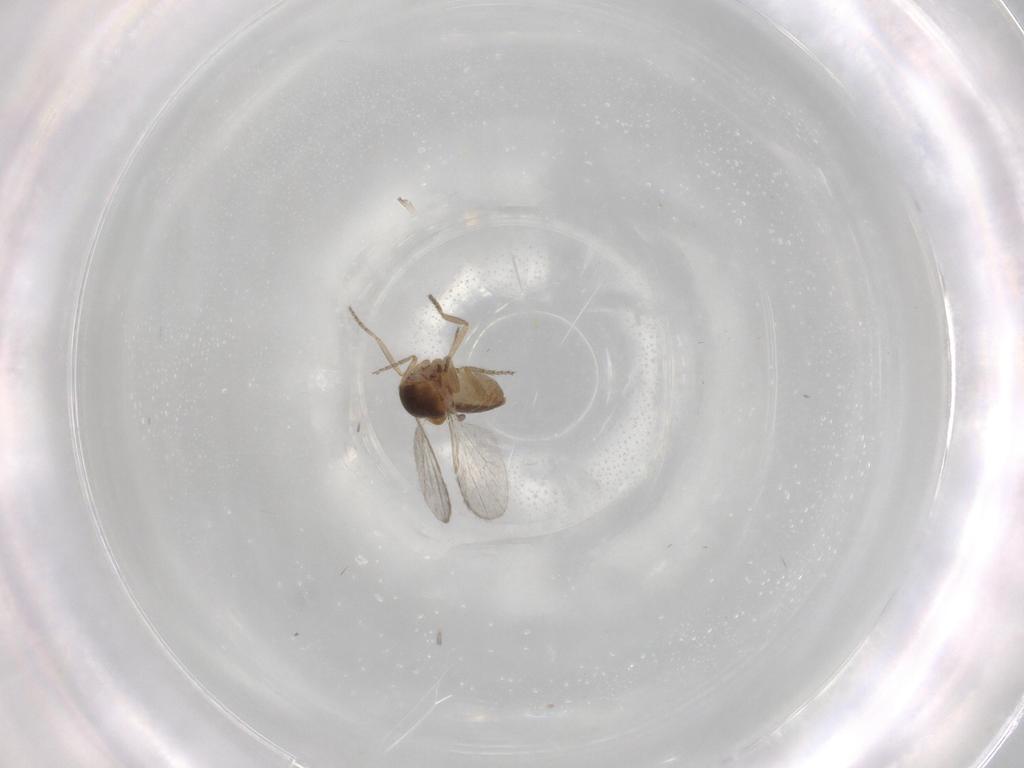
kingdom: Animalia
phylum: Arthropoda
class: Insecta
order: Diptera
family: Ceratopogonidae
